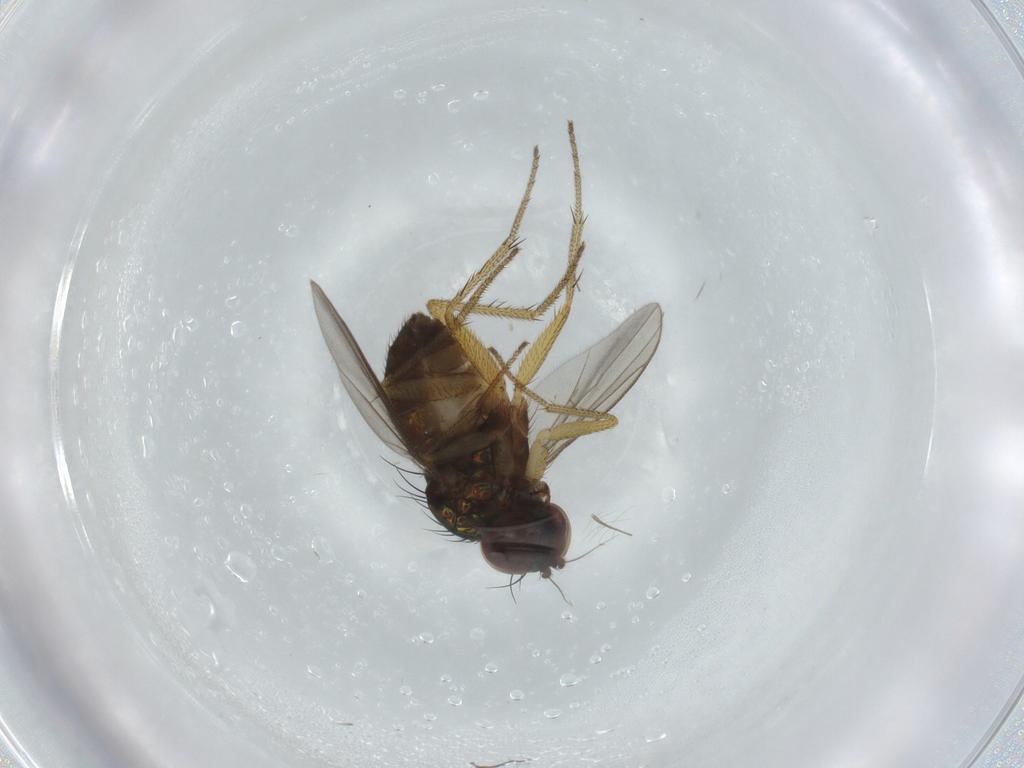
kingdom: Animalia
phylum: Arthropoda
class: Insecta
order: Diptera
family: Dolichopodidae
